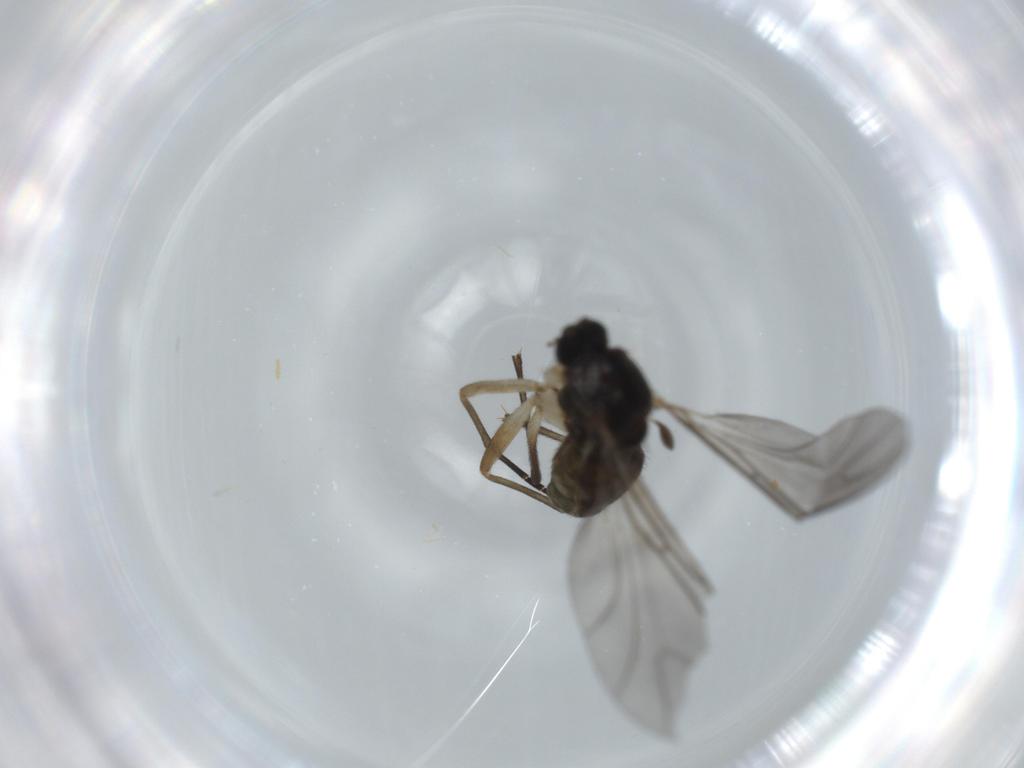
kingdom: Animalia
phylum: Arthropoda
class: Insecta
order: Diptera
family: Sciaridae
